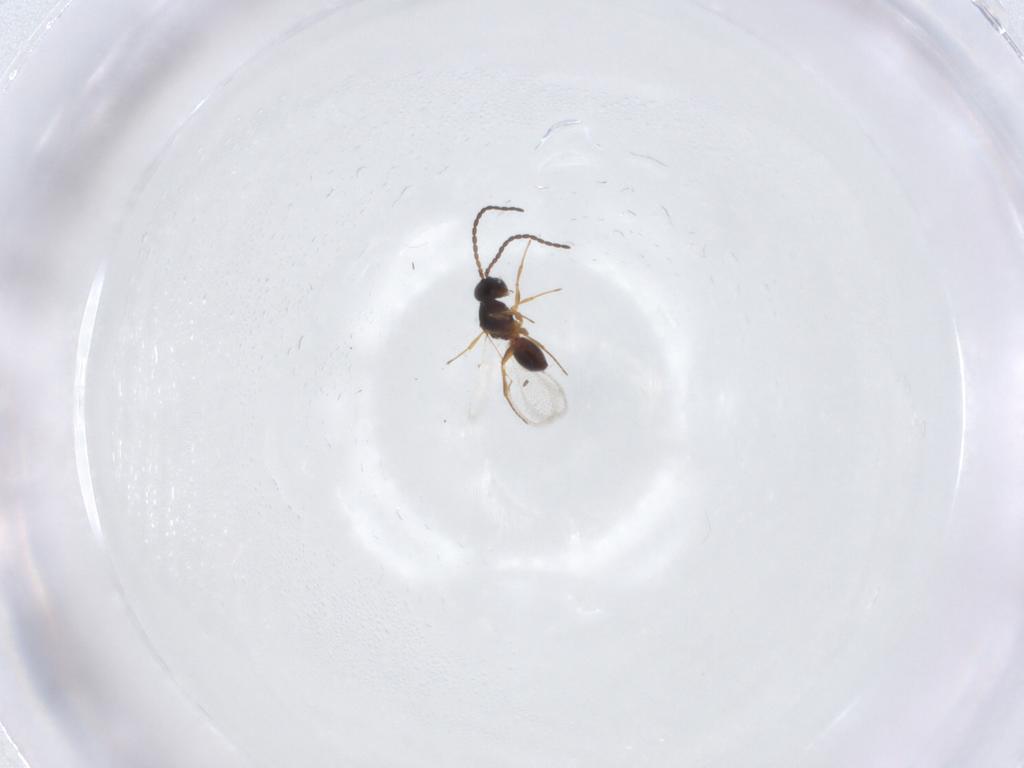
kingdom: Animalia
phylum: Arthropoda
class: Insecta
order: Hymenoptera
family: Figitidae
